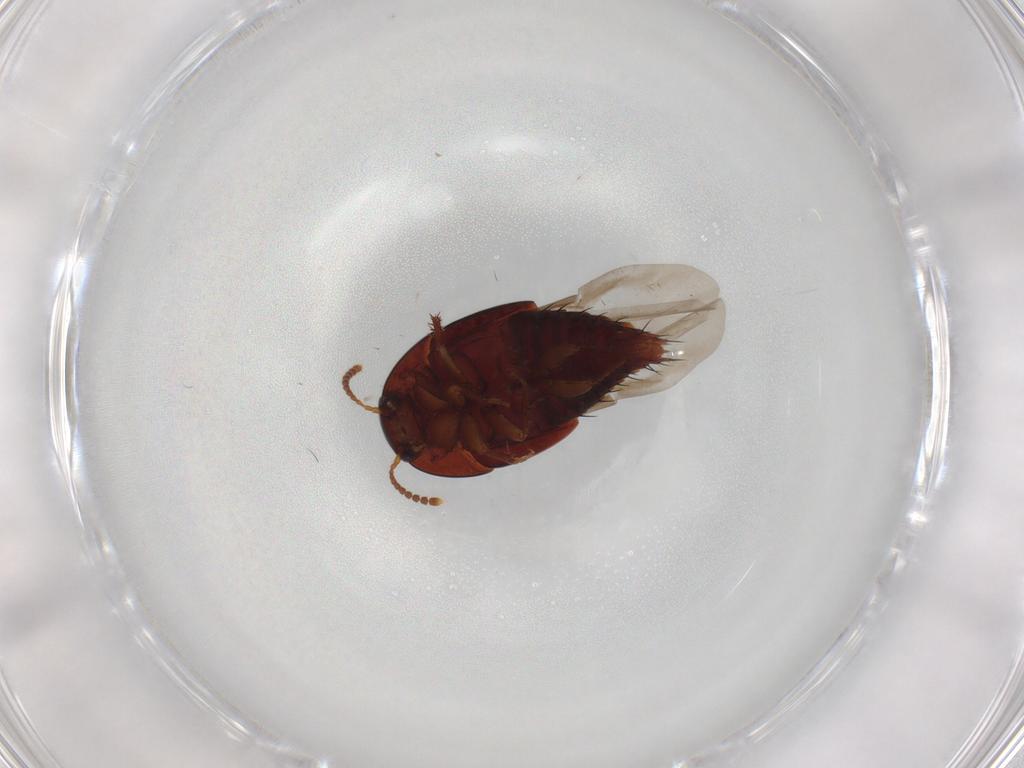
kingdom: Animalia
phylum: Arthropoda
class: Insecta
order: Coleoptera
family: Staphylinidae
